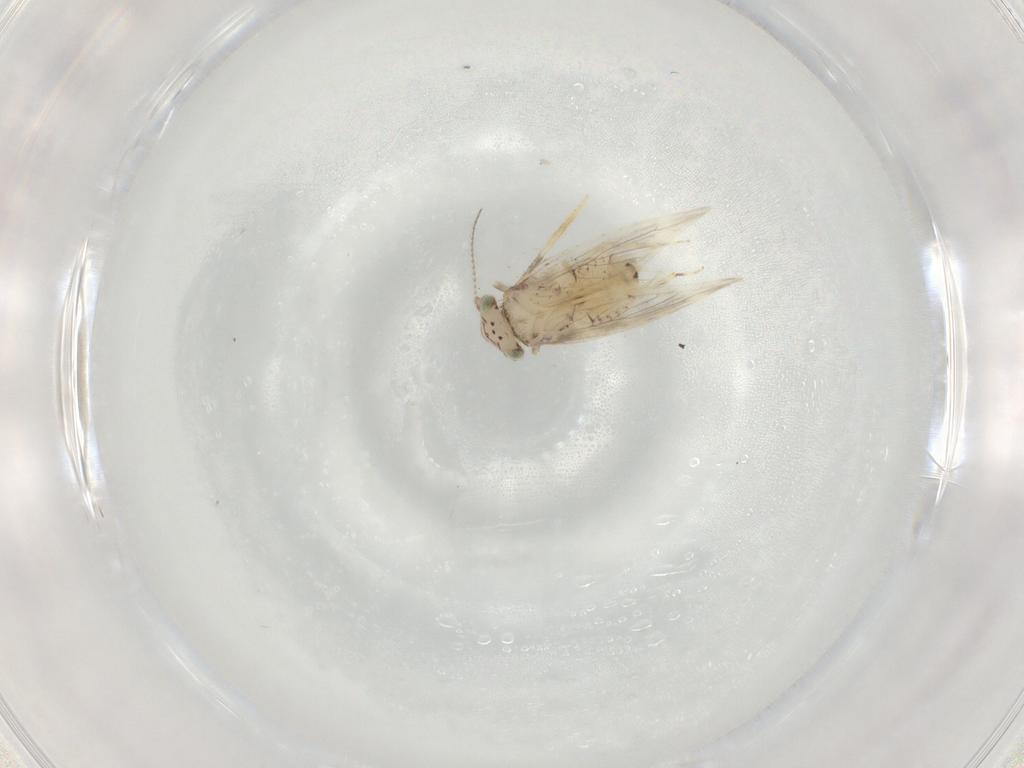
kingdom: Animalia
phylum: Arthropoda
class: Insecta
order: Psocodea
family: Lepidopsocidae
